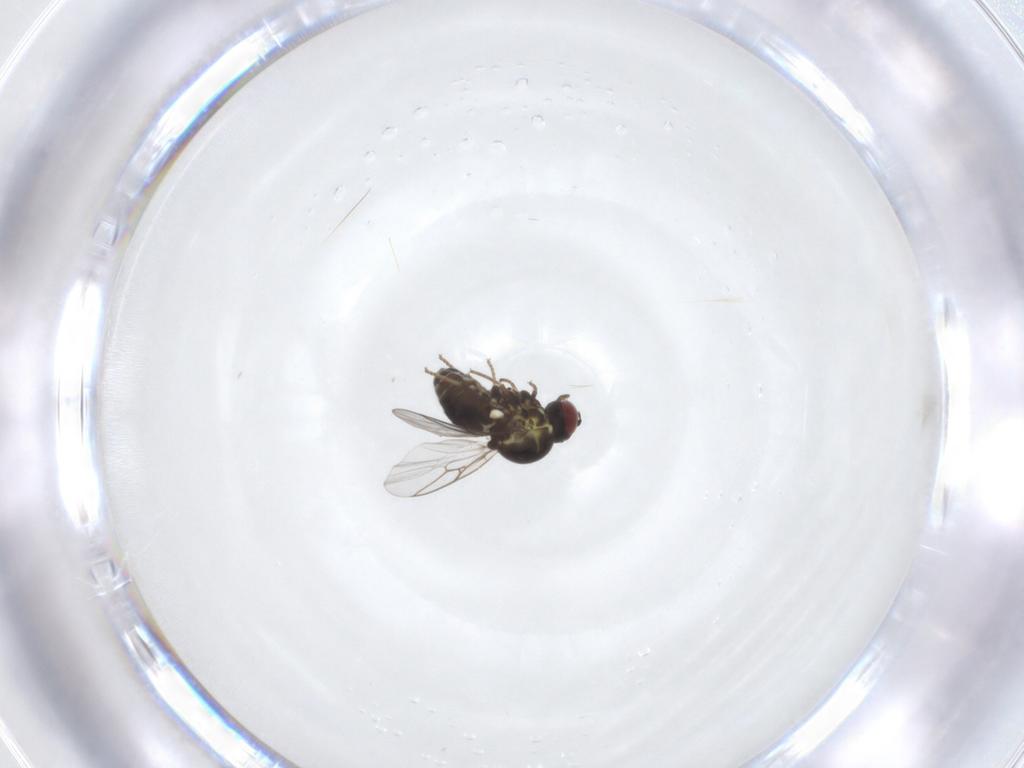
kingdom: Animalia
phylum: Arthropoda
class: Insecta
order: Diptera
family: Mythicomyiidae
